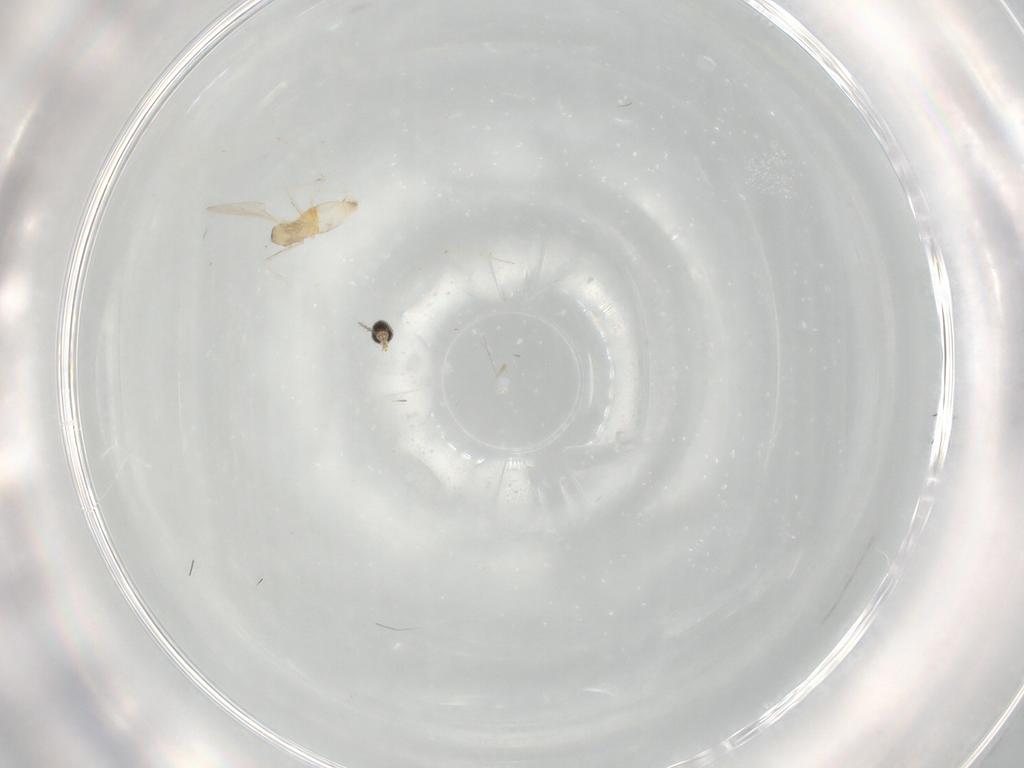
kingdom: Animalia
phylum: Arthropoda
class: Insecta
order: Diptera
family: Cecidomyiidae
